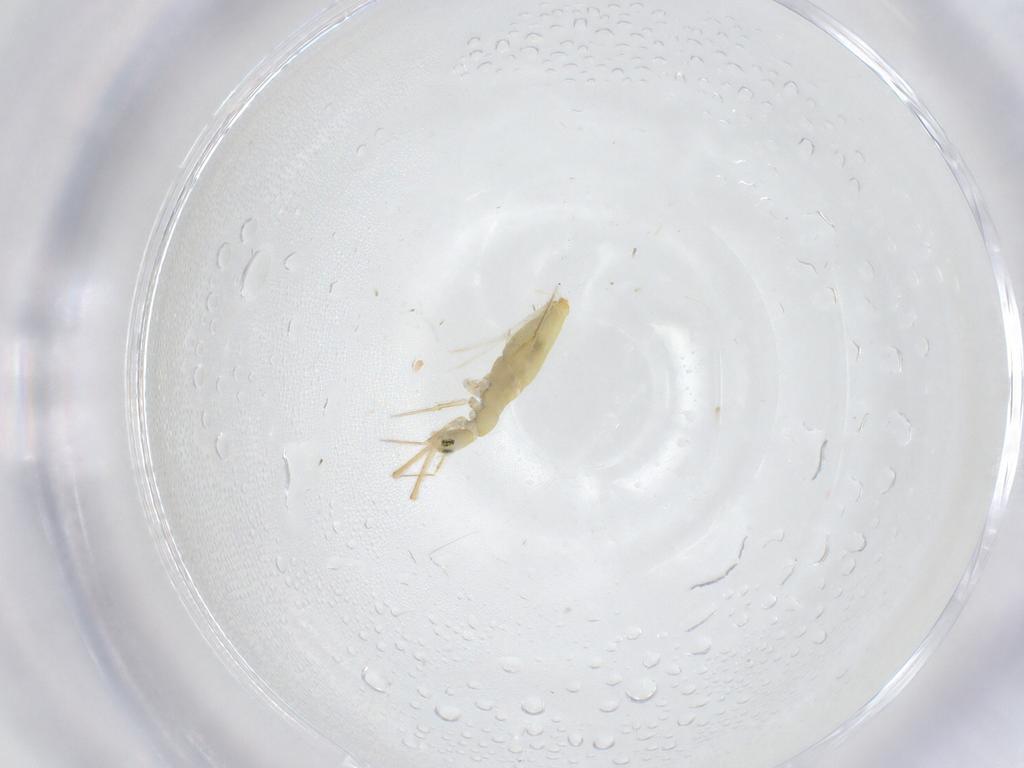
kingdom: Animalia
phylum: Arthropoda
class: Collembola
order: Entomobryomorpha
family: Paronellidae
